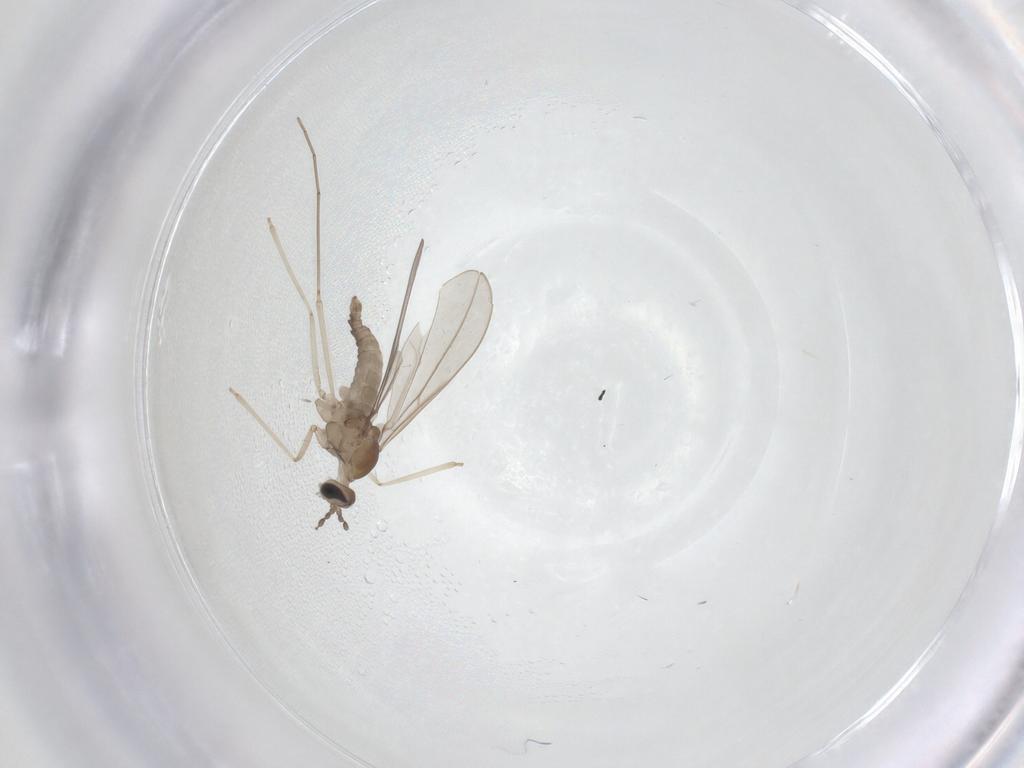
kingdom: Animalia
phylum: Arthropoda
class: Insecta
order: Diptera
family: Cecidomyiidae
